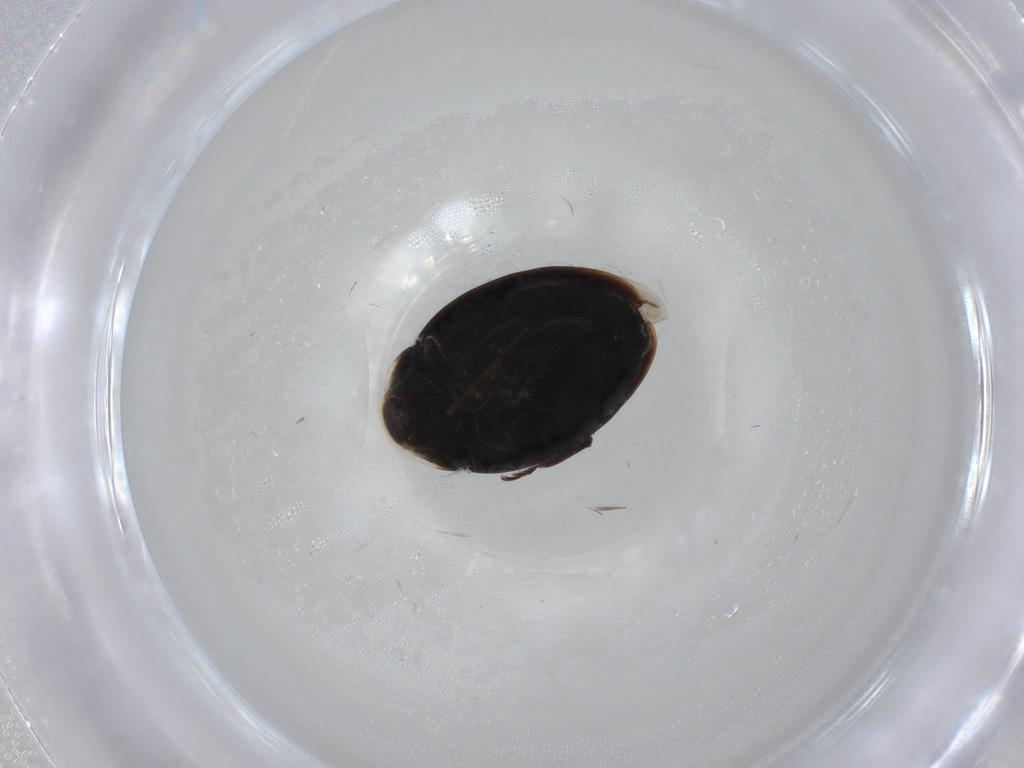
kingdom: Animalia
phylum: Arthropoda
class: Insecta
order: Coleoptera
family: Coccinellidae
